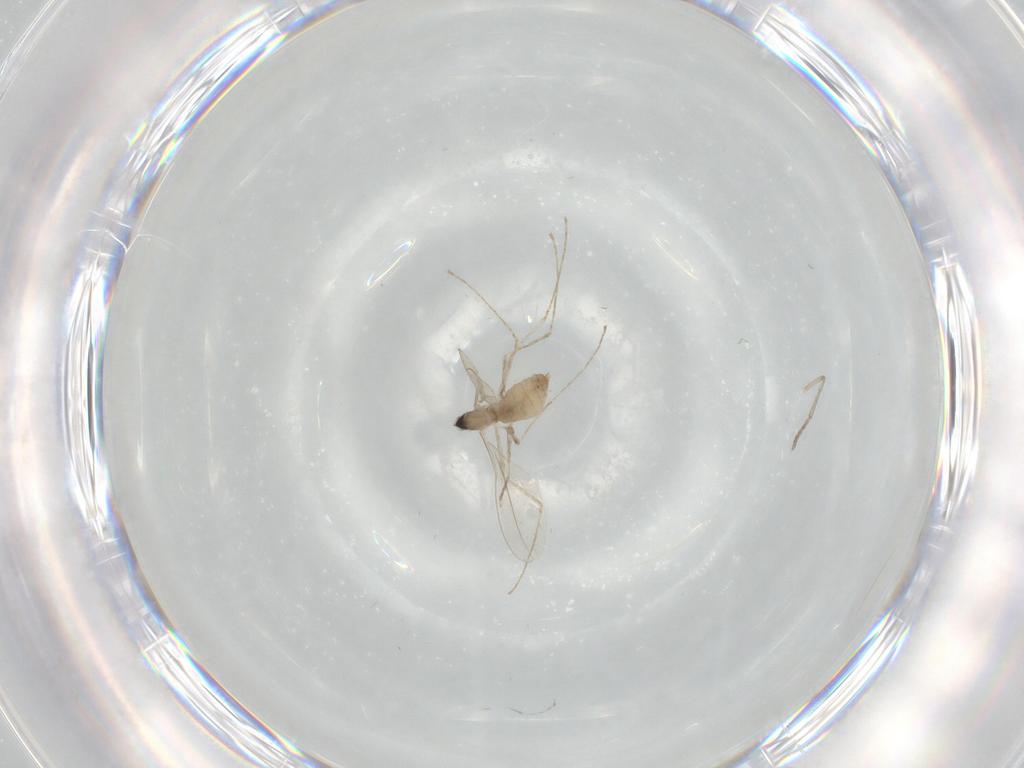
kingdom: Animalia
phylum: Arthropoda
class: Insecta
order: Diptera
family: Psychodidae
